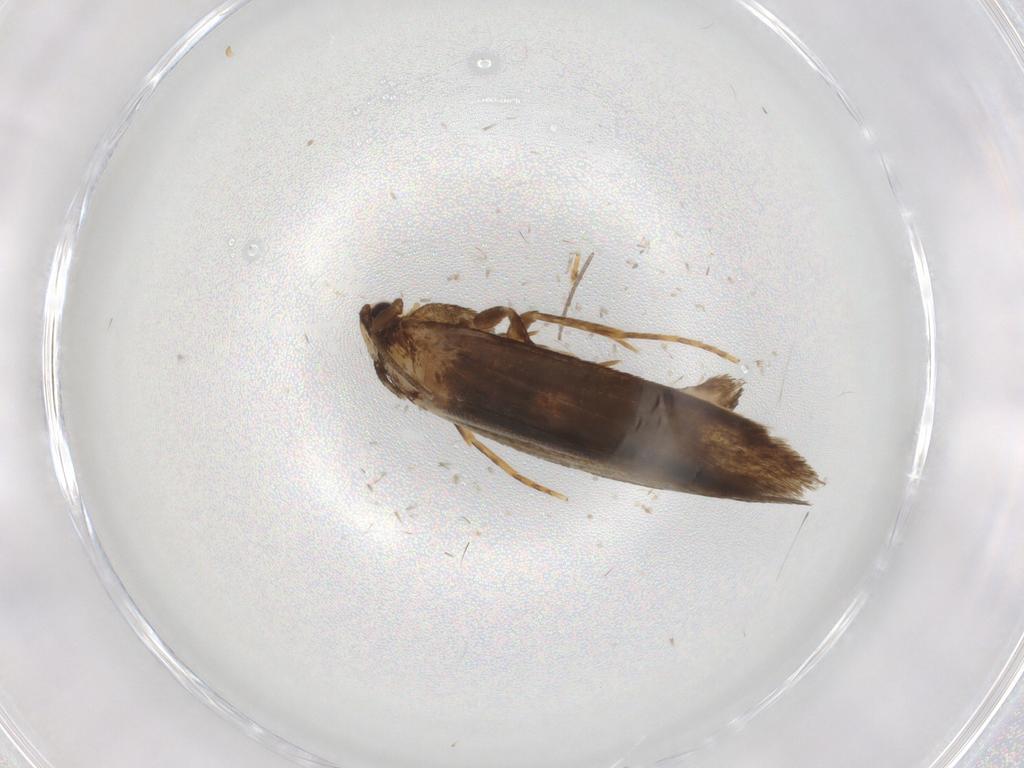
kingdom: Animalia
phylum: Arthropoda
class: Insecta
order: Lepidoptera
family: Tineidae
